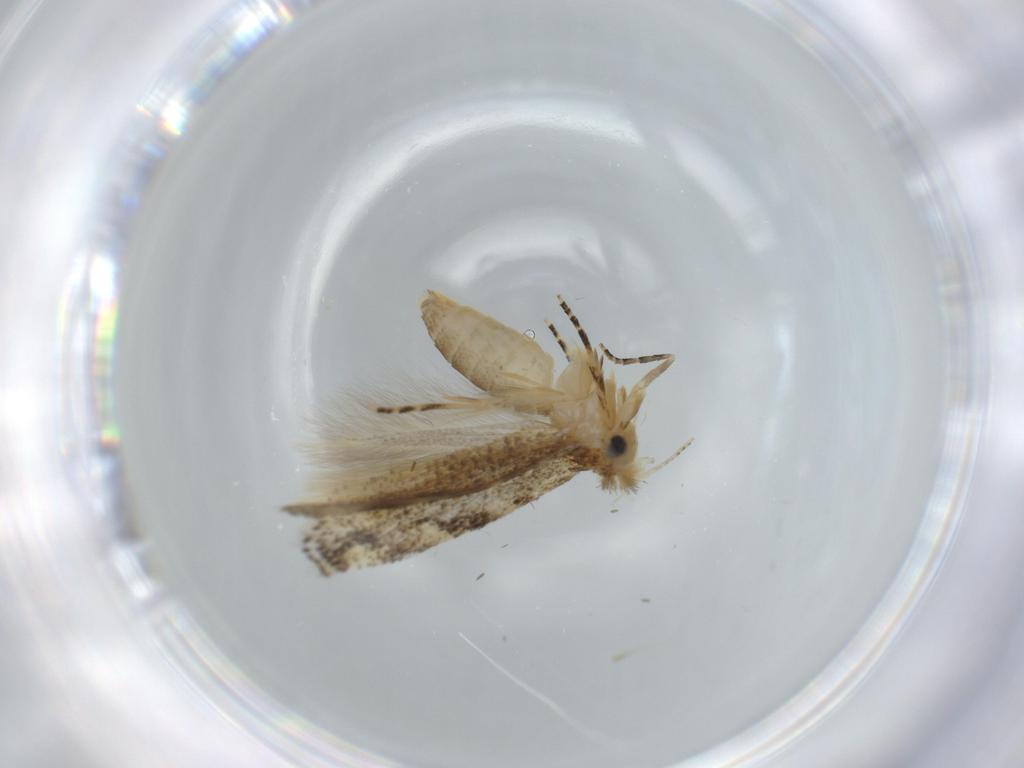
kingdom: Animalia
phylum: Arthropoda
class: Insecta
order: Lepidoptera
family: Bucculatricidae
